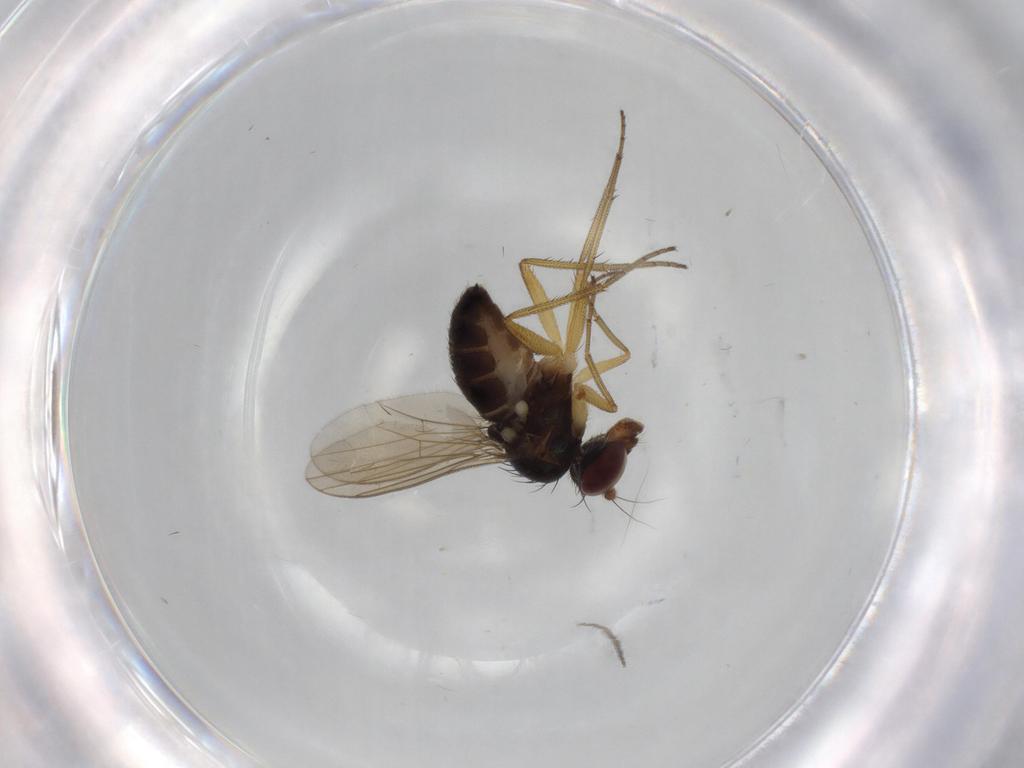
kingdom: Animalia
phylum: Arthropoda
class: Insecta
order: Diptera
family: Dolichopodidae
